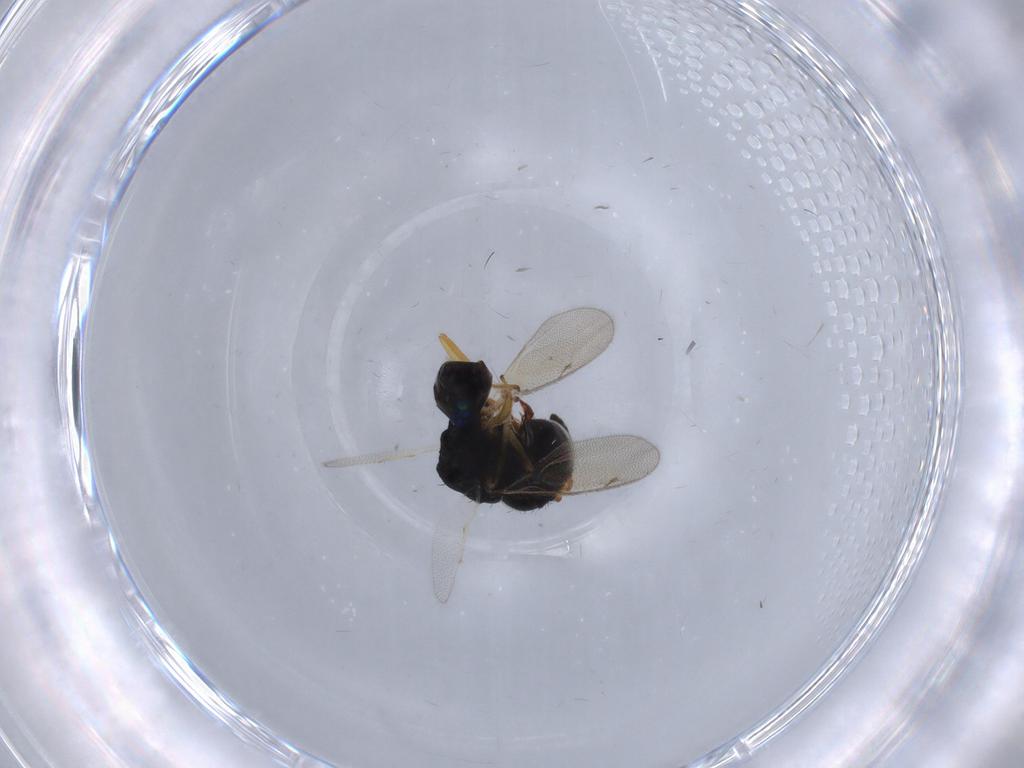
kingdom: Animalia
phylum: Arthropoda
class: Insecta
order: Hymenoptera
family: Pteromalidae
